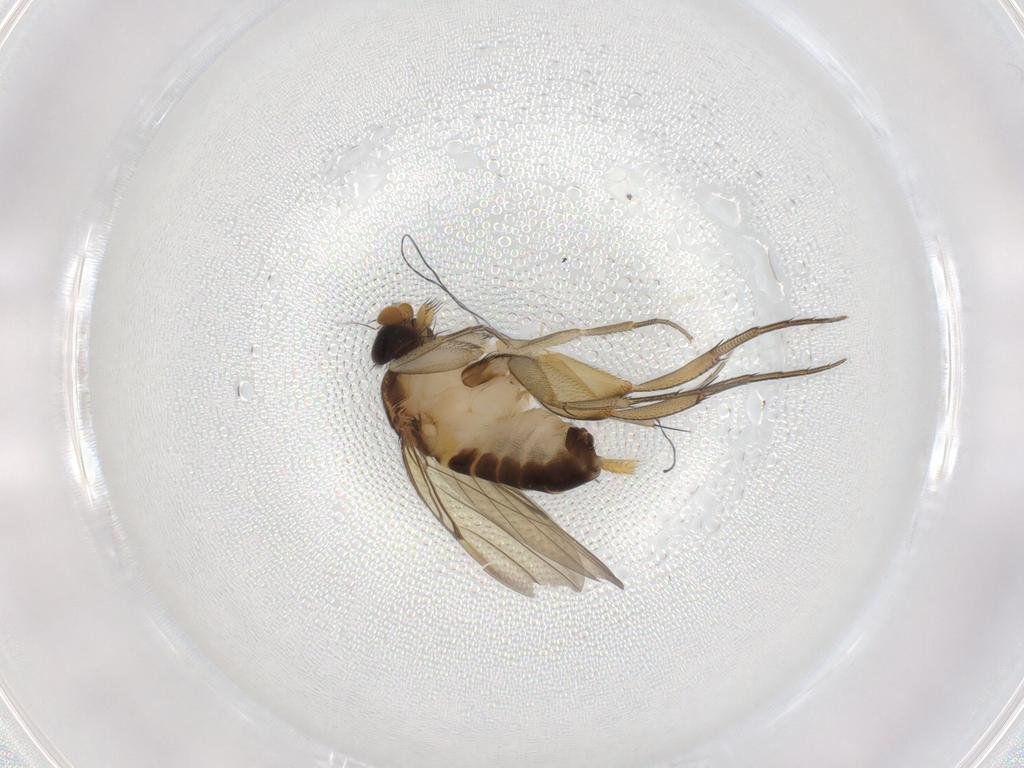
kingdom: Animalia
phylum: Arthropoda
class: Insecta
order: Diptera
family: Phoridae
